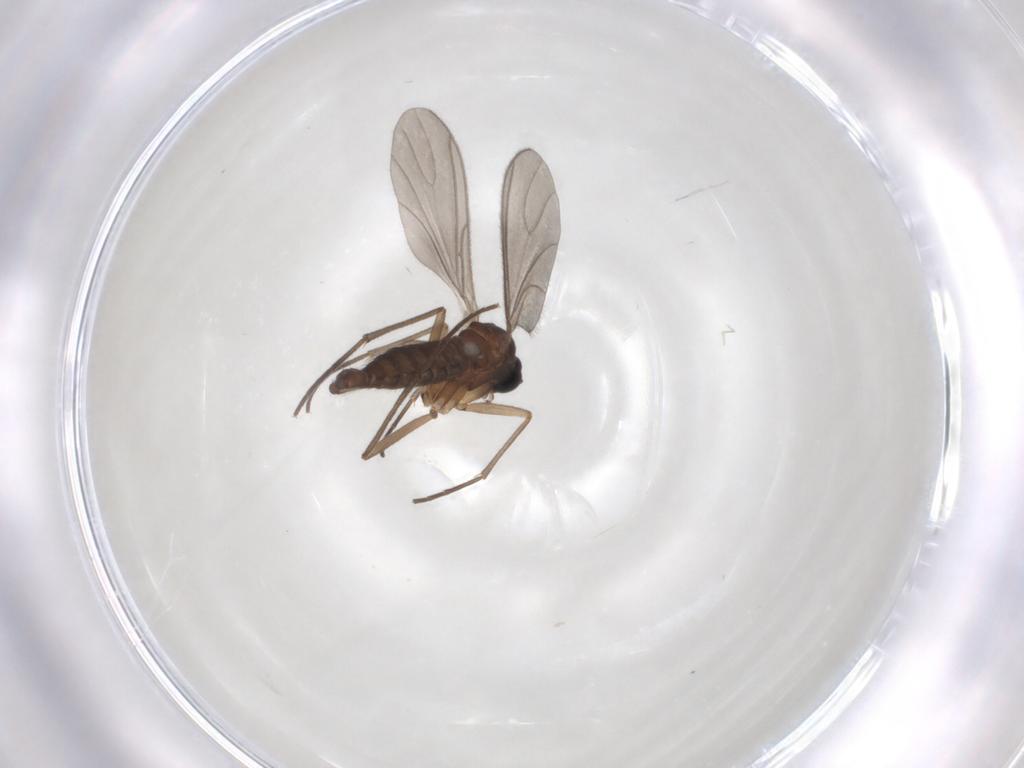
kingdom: Animalia
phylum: Arthropoda
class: Insecta
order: Diptera
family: Sciaridae
